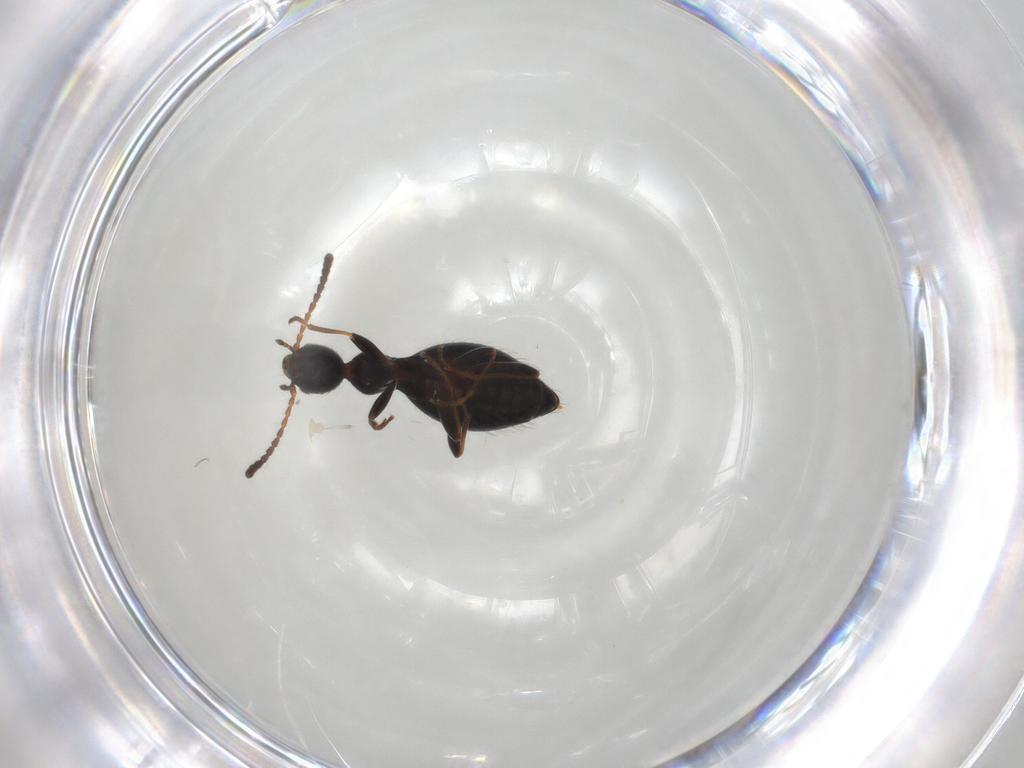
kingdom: Animalia
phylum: Arthropoda
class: Insecta
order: Coleoptera
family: Anthicidae
